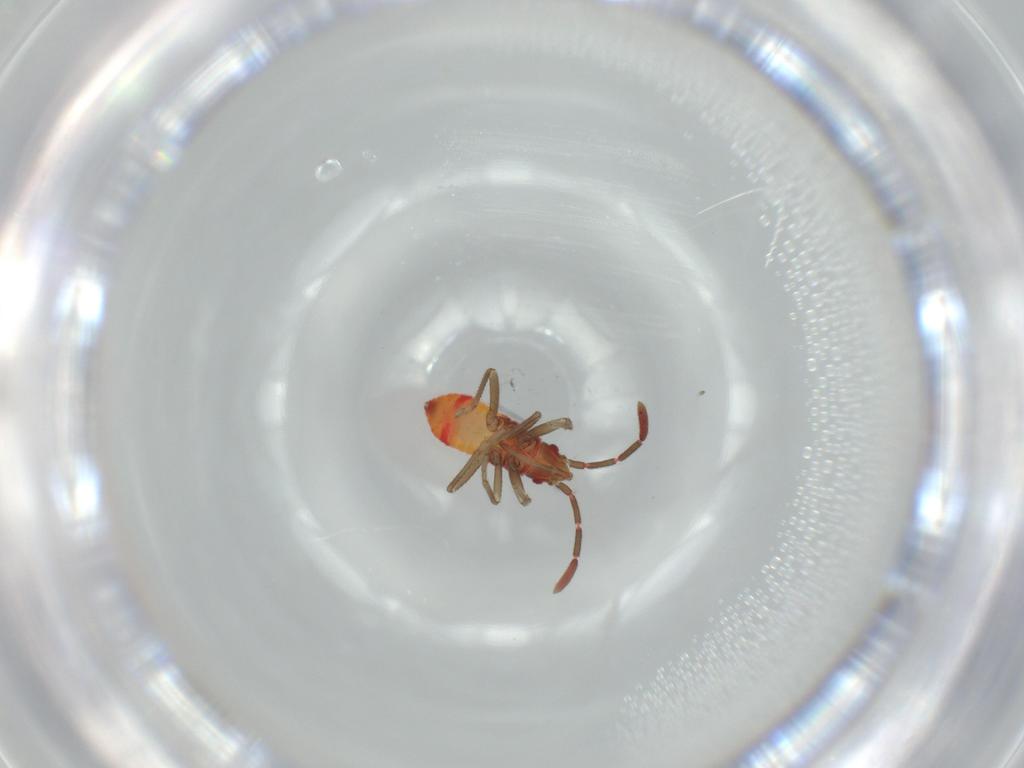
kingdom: Animalia
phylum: Arthropoda
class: Insecta
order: Hemiptera
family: Rhyparochromidae
